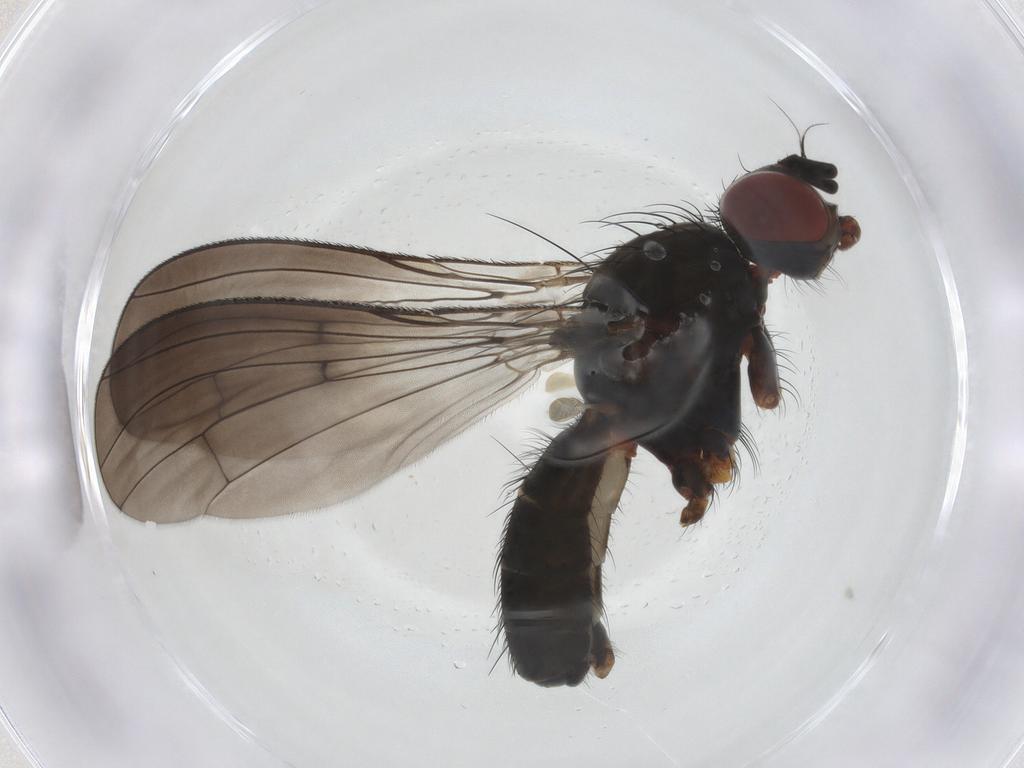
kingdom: Animalia
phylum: Arthropoda
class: Insecta
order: Diptera
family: Anthomyiidae
